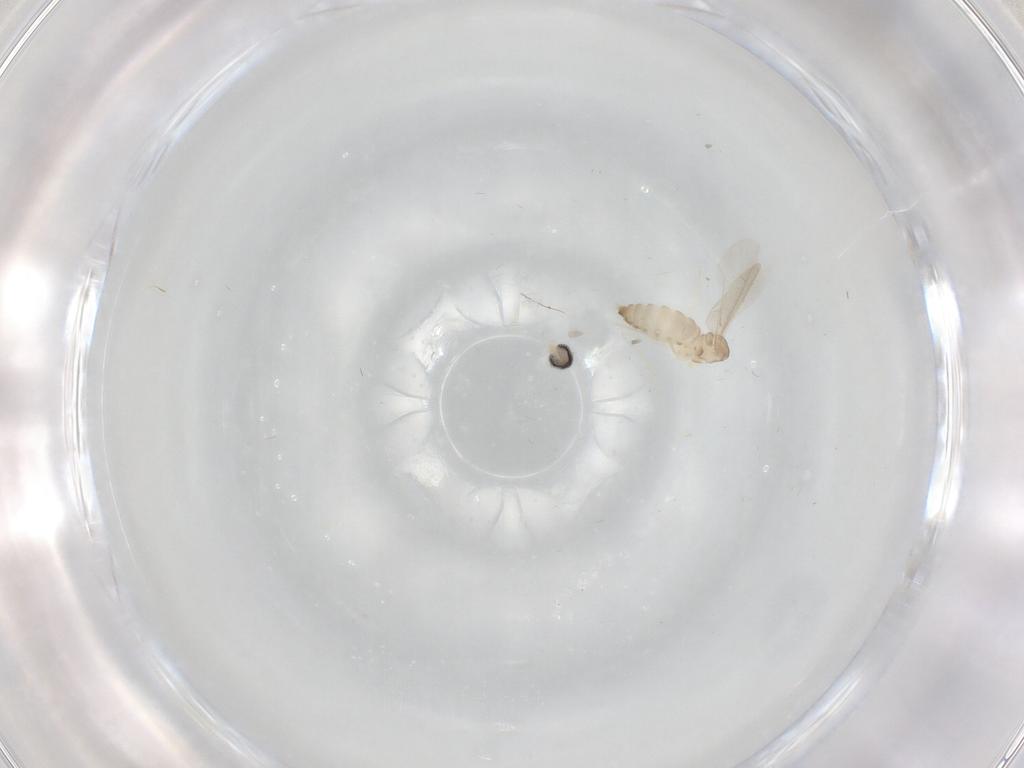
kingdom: Animalia
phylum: Arthropoda
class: Insecta
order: Diptera
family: Cecidomyiidae
